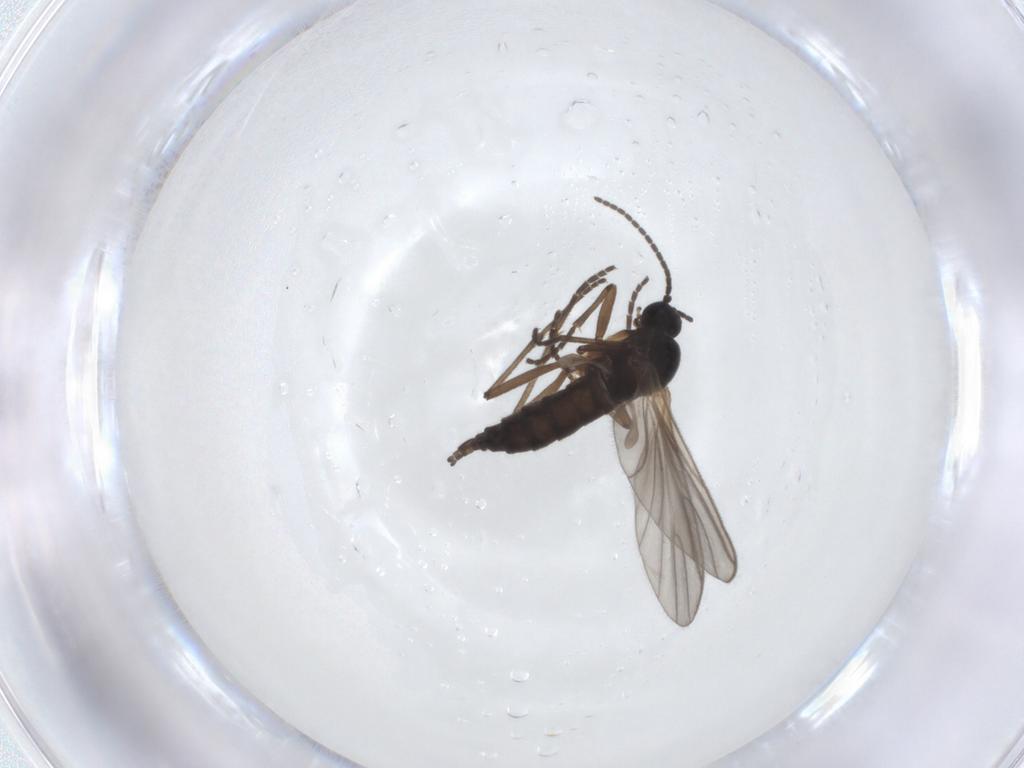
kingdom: Animalia
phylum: Arthropoda
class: Insecta
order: Diptera
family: Sciaridae
